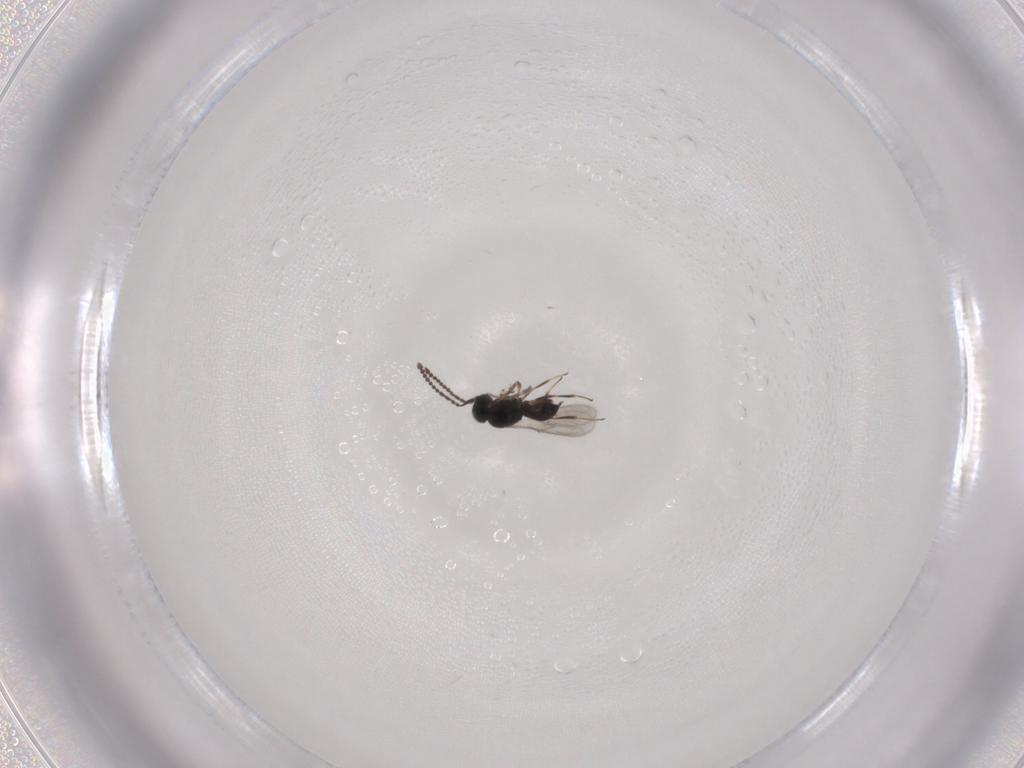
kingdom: Animalia
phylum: Arthropoda
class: Insecta
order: Hymenoptera
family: Scelionidae
